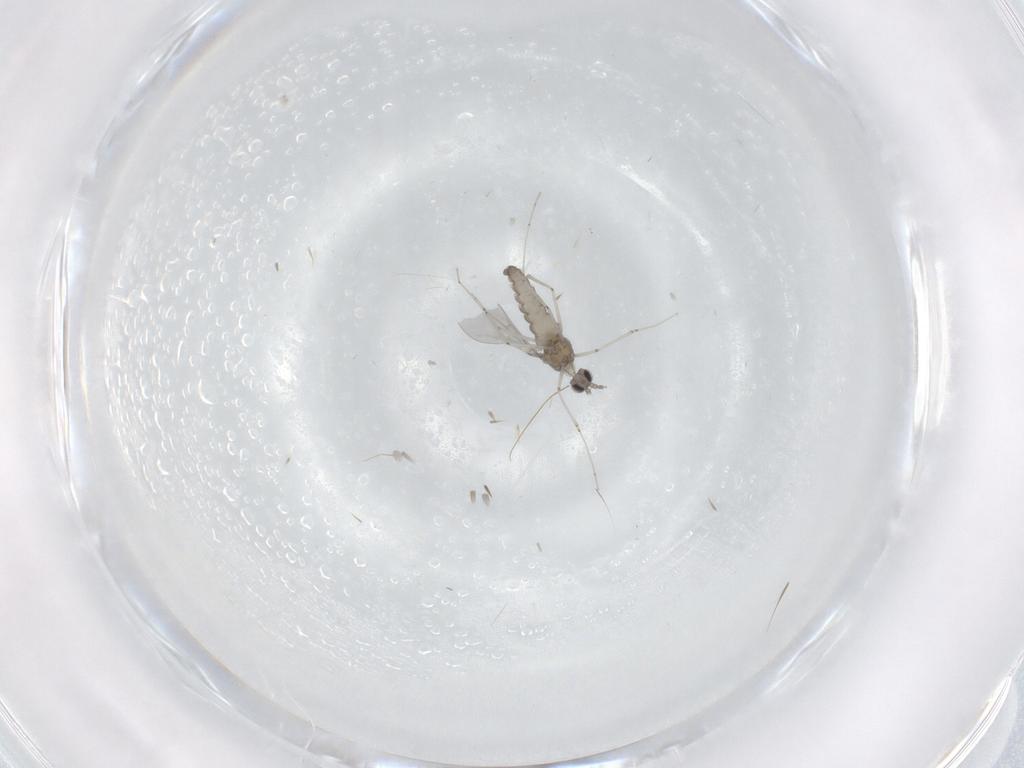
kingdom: Animalia
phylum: Arthropoda
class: Insecta
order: Diptera
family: Cecidomyiidae
